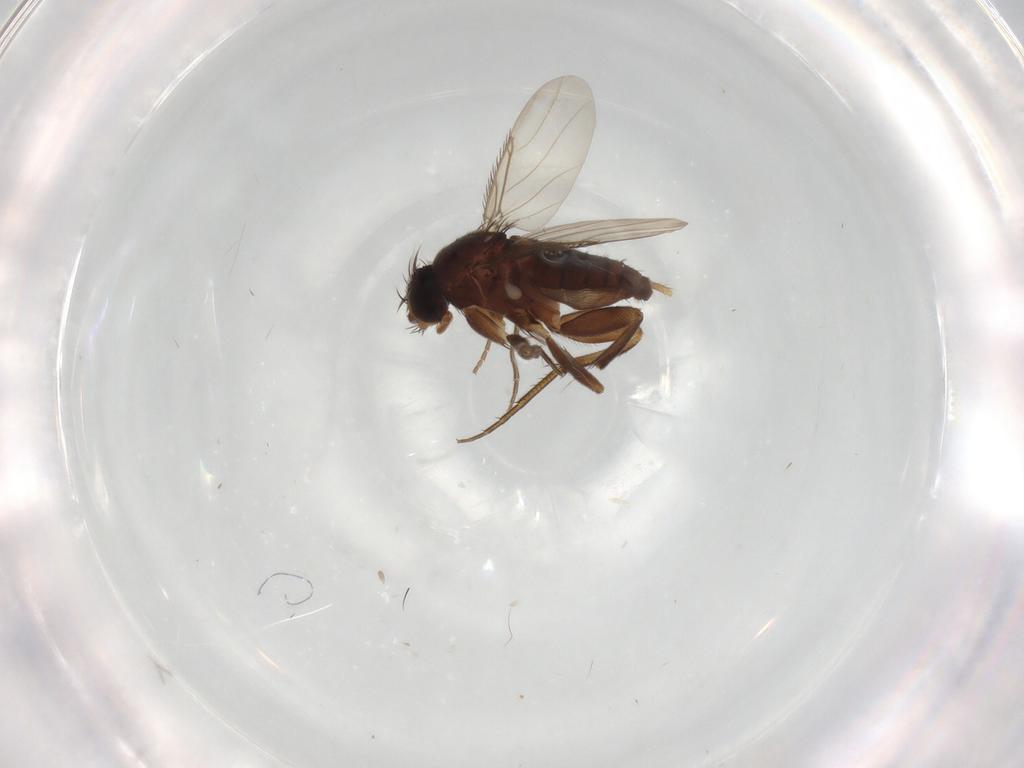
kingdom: Animalia
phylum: Arthropoda
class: Insecta
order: Diptera
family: Phoridae
